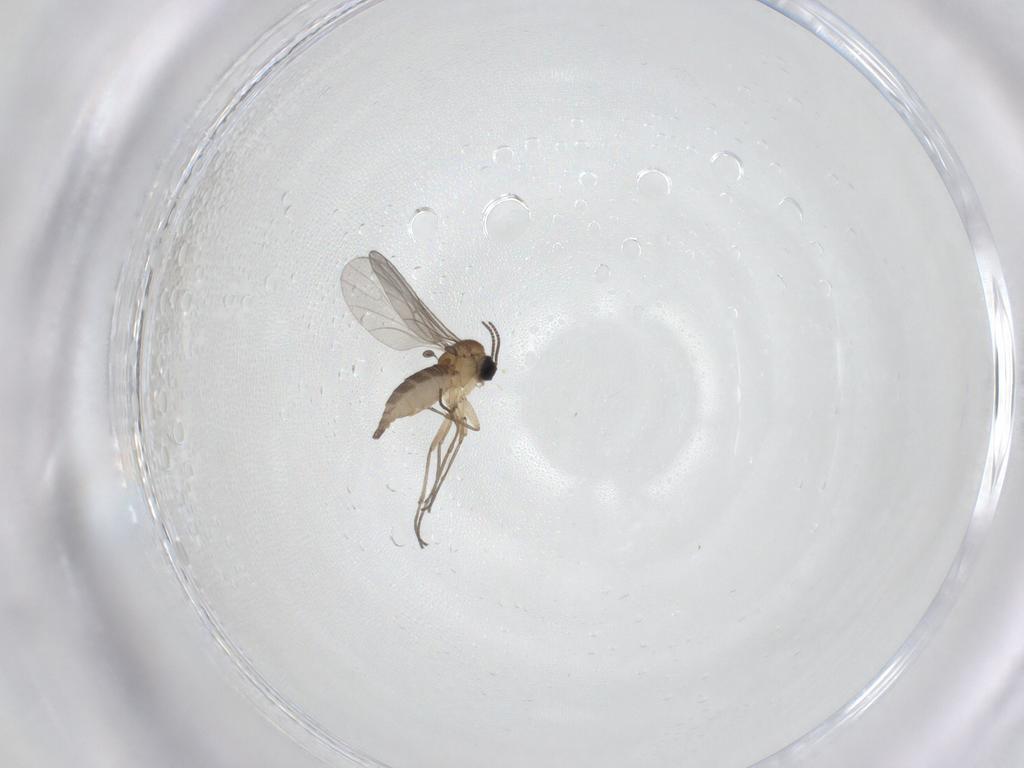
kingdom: Animalia
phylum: Arthropoda
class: Insecta
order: Diptera
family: Sciaridae
